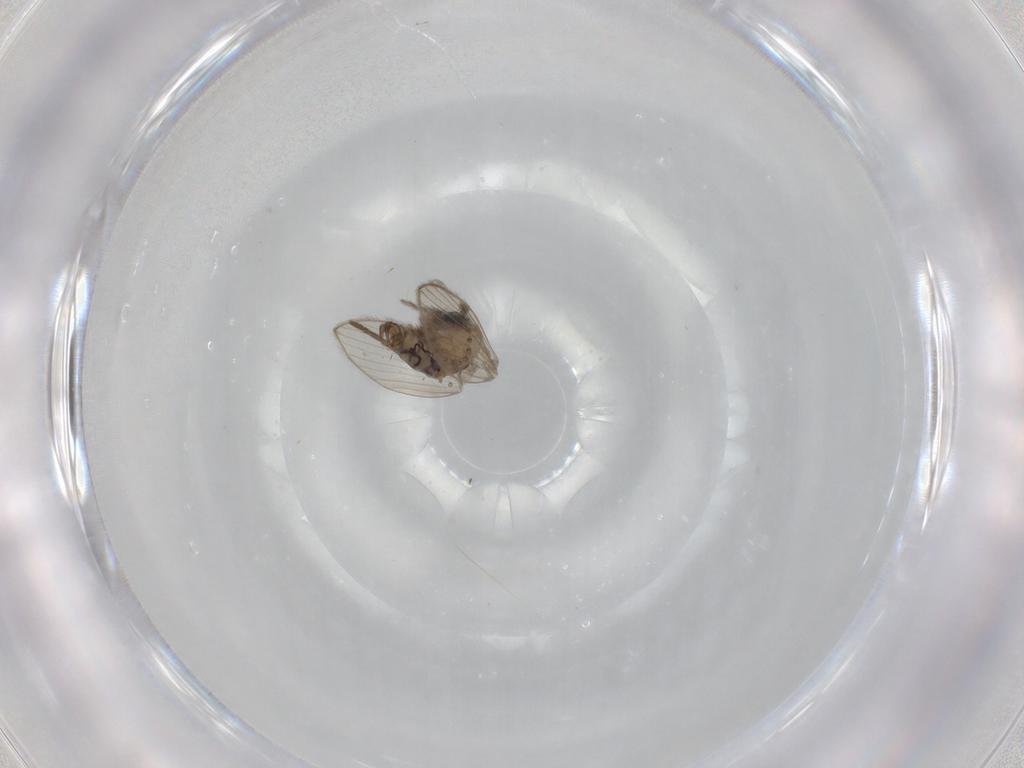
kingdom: Animalia
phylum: Arthropoda
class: Insecta
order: Diptera
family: Psychodidae
